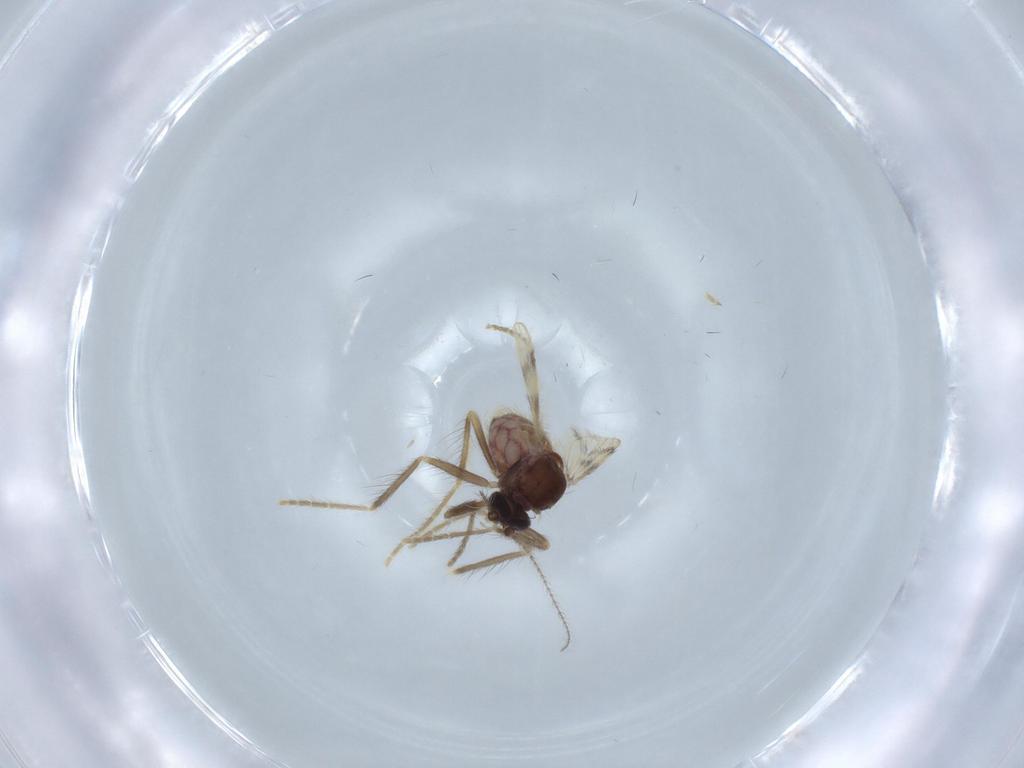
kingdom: Animalia
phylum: Arthropoda
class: Insecta
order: Diptera
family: Corethrellidae
